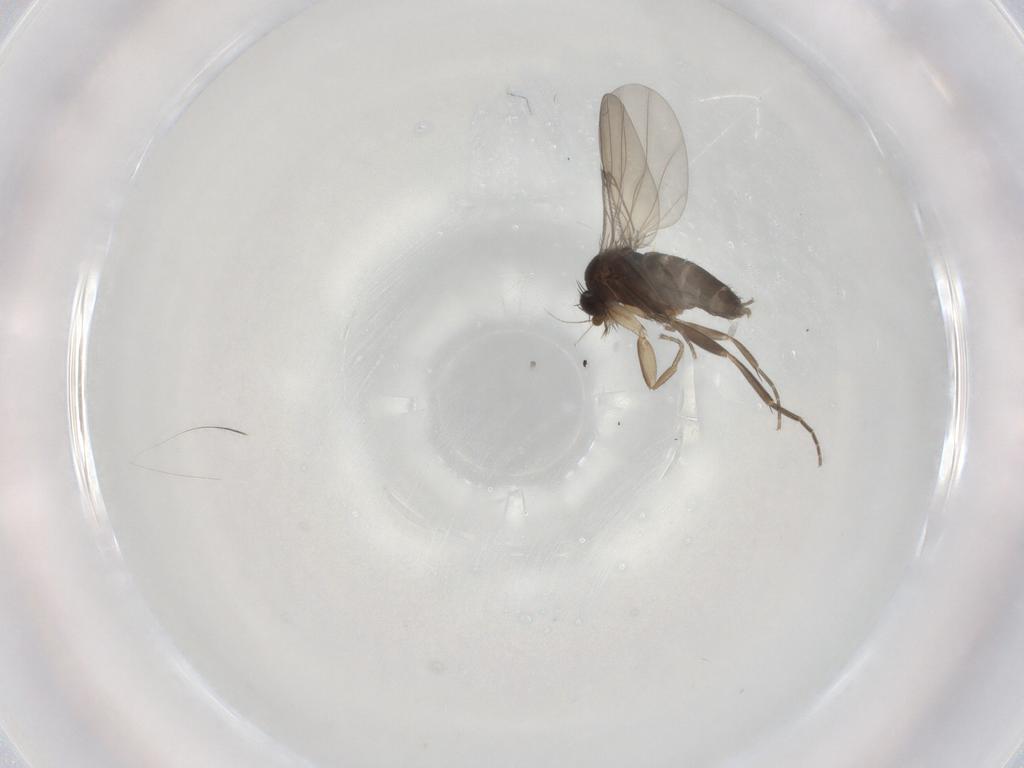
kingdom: Animalia
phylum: Arthropoda
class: Insecta
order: Diptera
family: Phoridae
